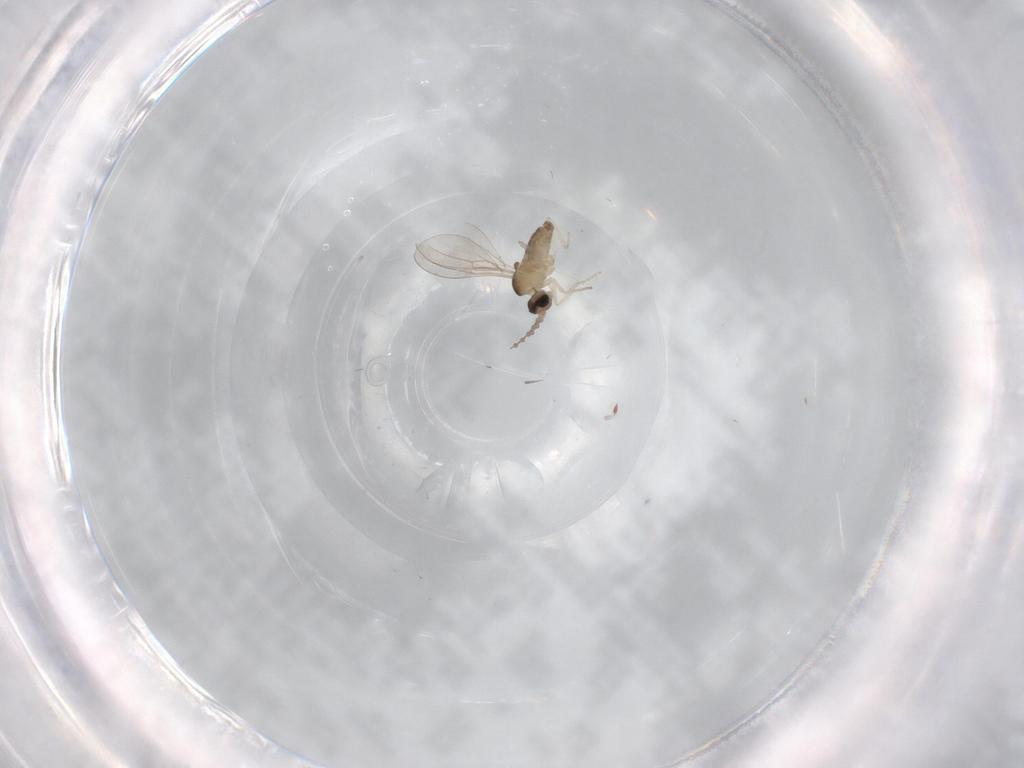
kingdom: Animalia
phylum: Arthropoda
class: Insecta
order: Diptera
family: Cecidomyiidae
